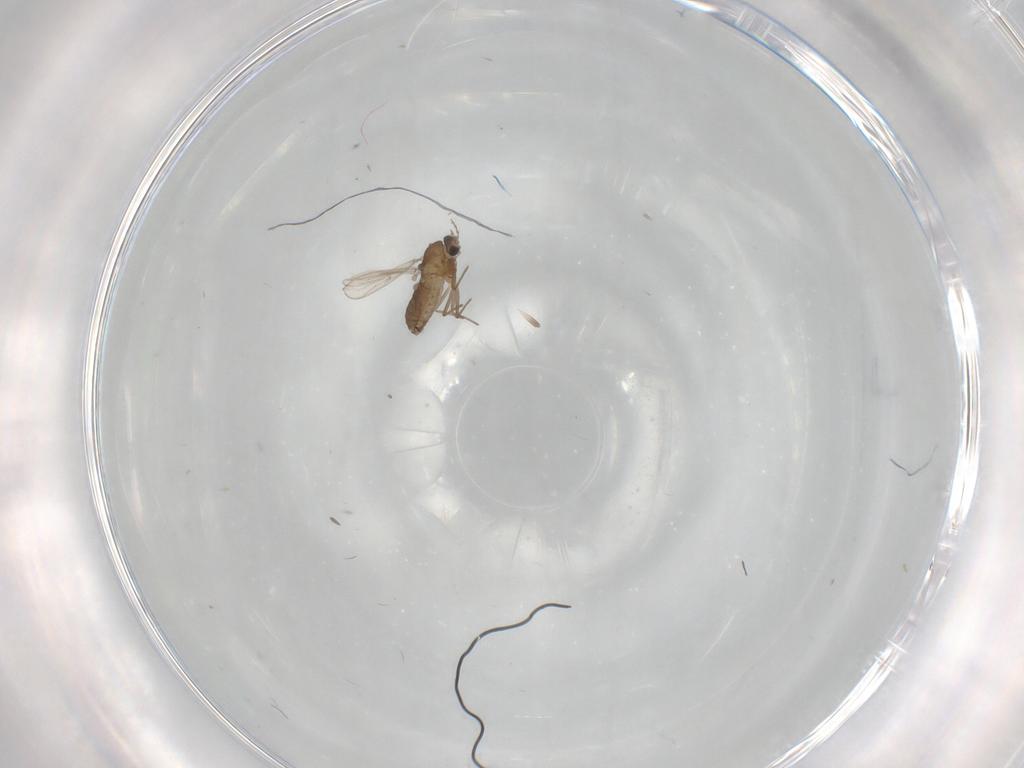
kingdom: Animalia
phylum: Arthropoda
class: Insecta
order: Diptera
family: Chironomidae
